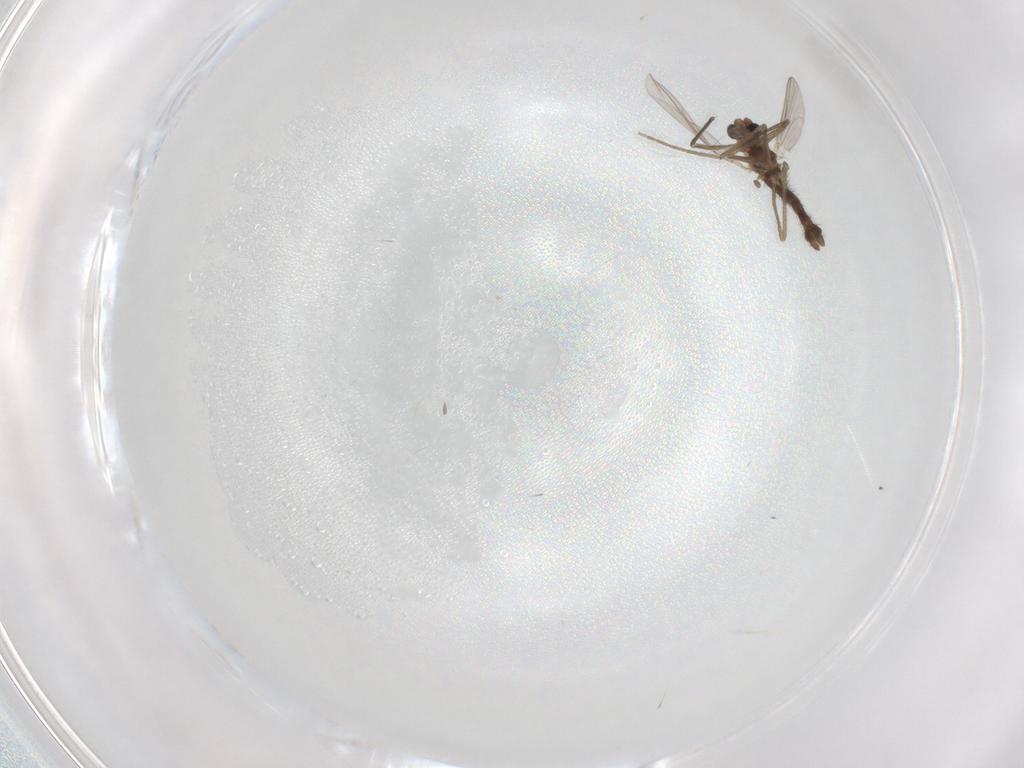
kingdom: Animalia
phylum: Arthropoda
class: Insecta
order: Diptera
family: Chironomidae
